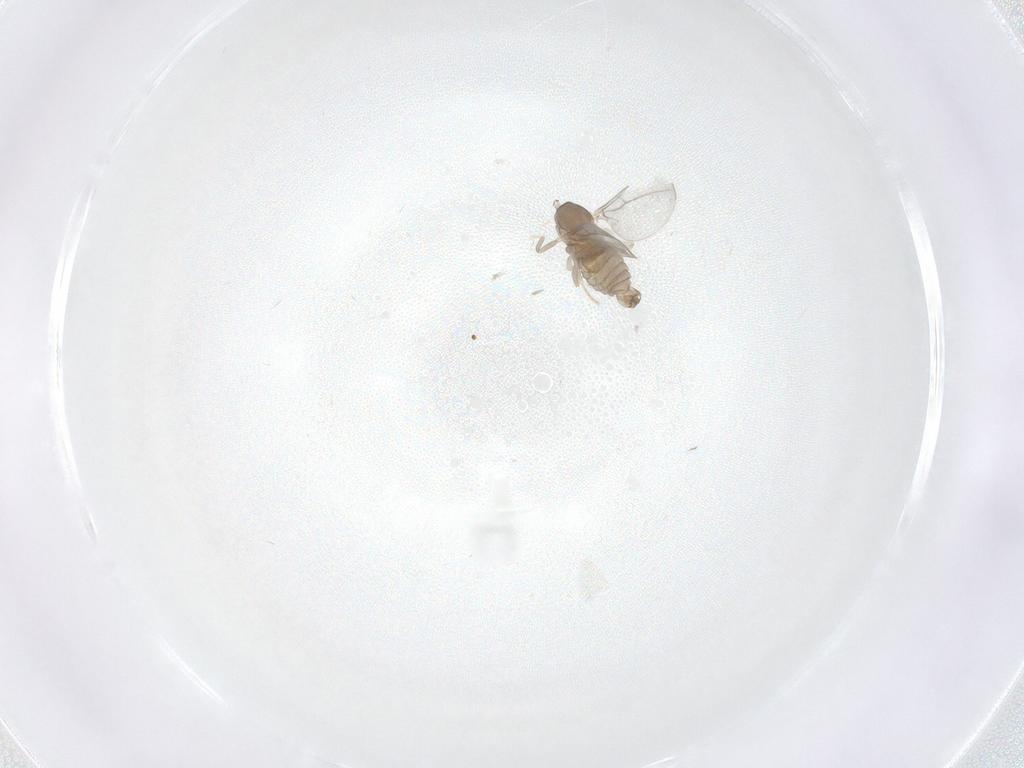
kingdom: Animalia
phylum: Arthropoda
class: Insecta
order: Diptera
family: Cecidomyiidae
